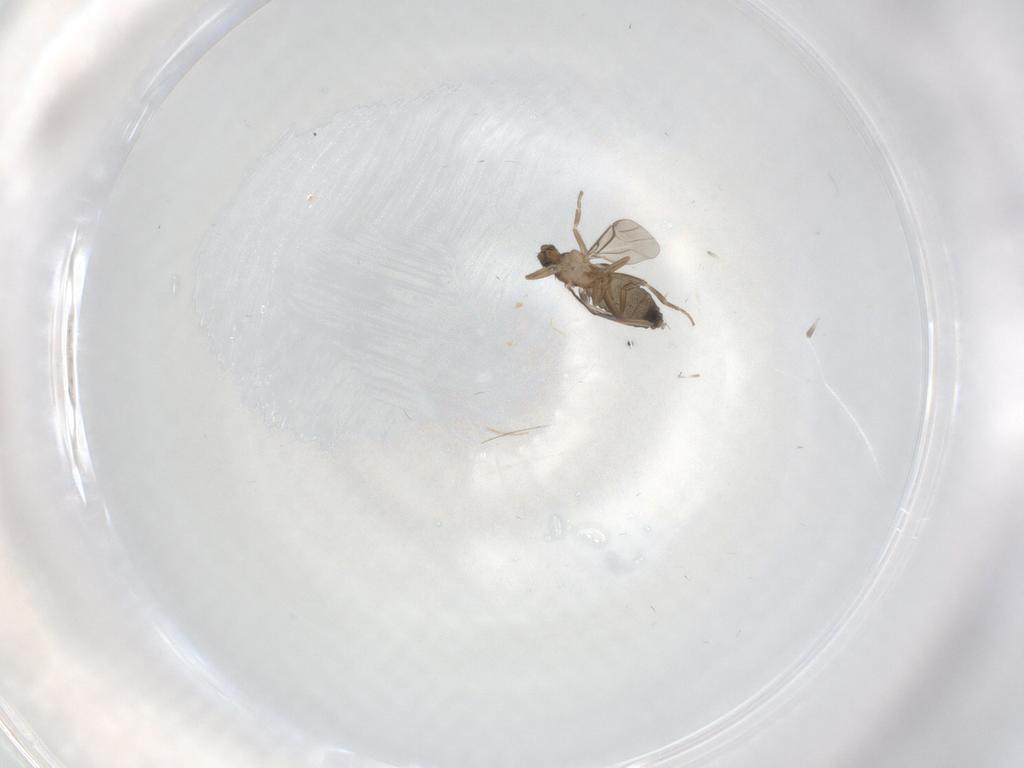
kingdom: Animalia
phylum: Arthropoda
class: Insecta
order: Diptera
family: Phoridae
